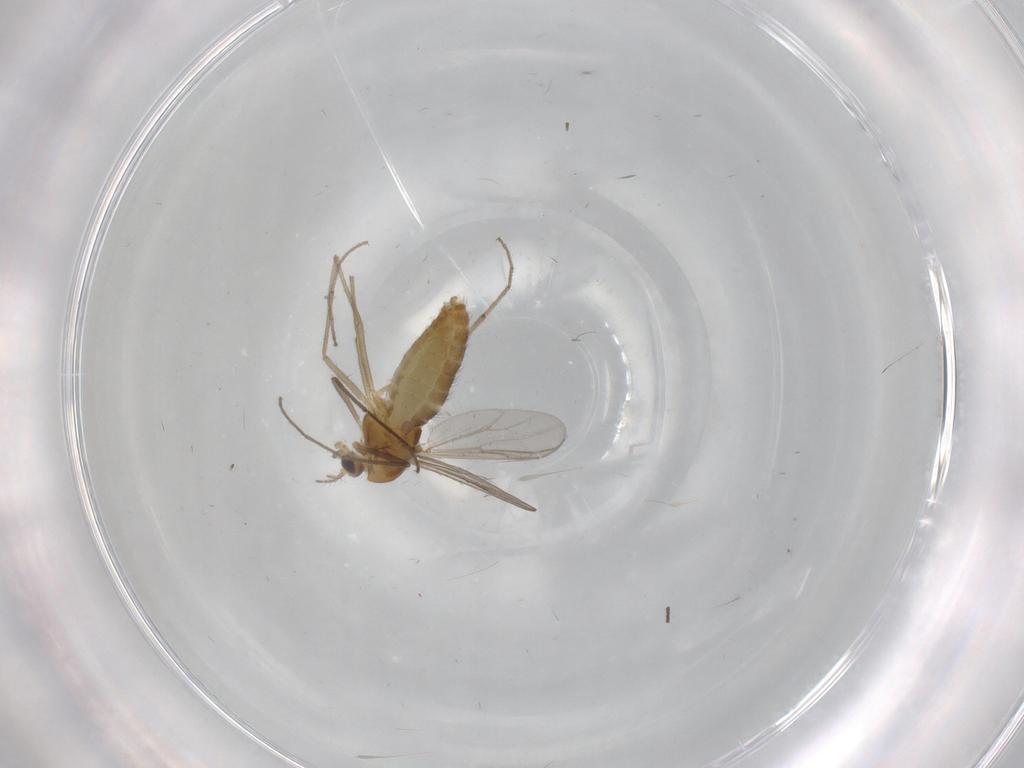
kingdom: Animalia
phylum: Arthropoda
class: Insecta
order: Diptera
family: Chironomidae
